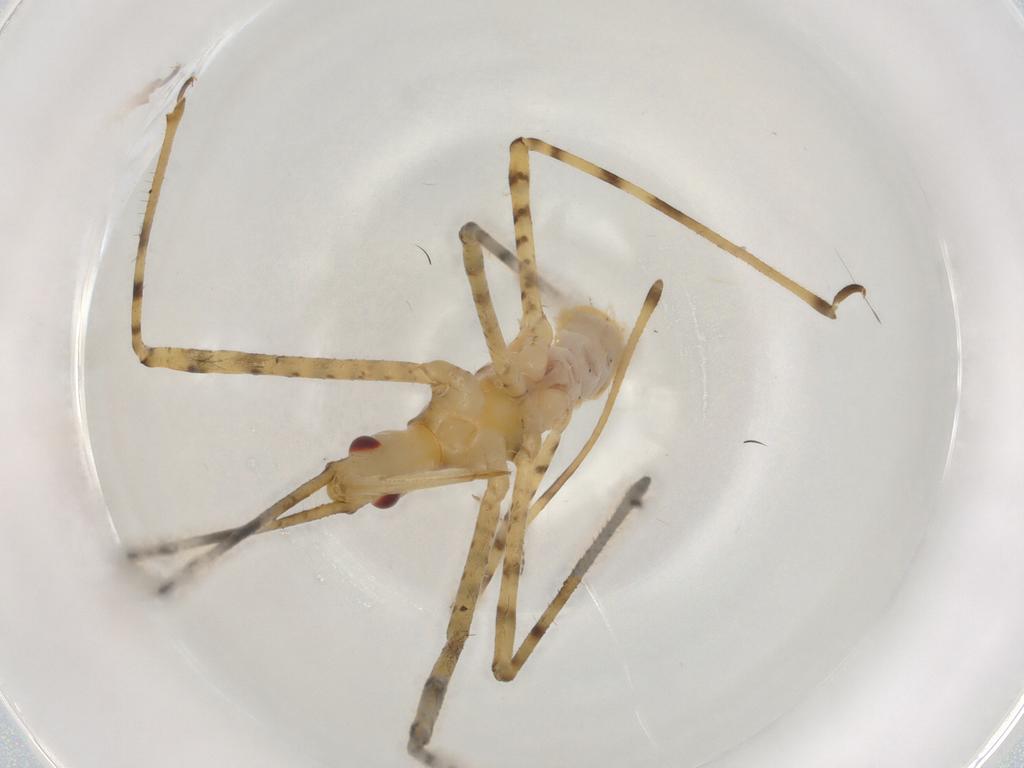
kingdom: Animalia
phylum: Arthropoda
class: Insecta
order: Hemiptera
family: Reduviidae
